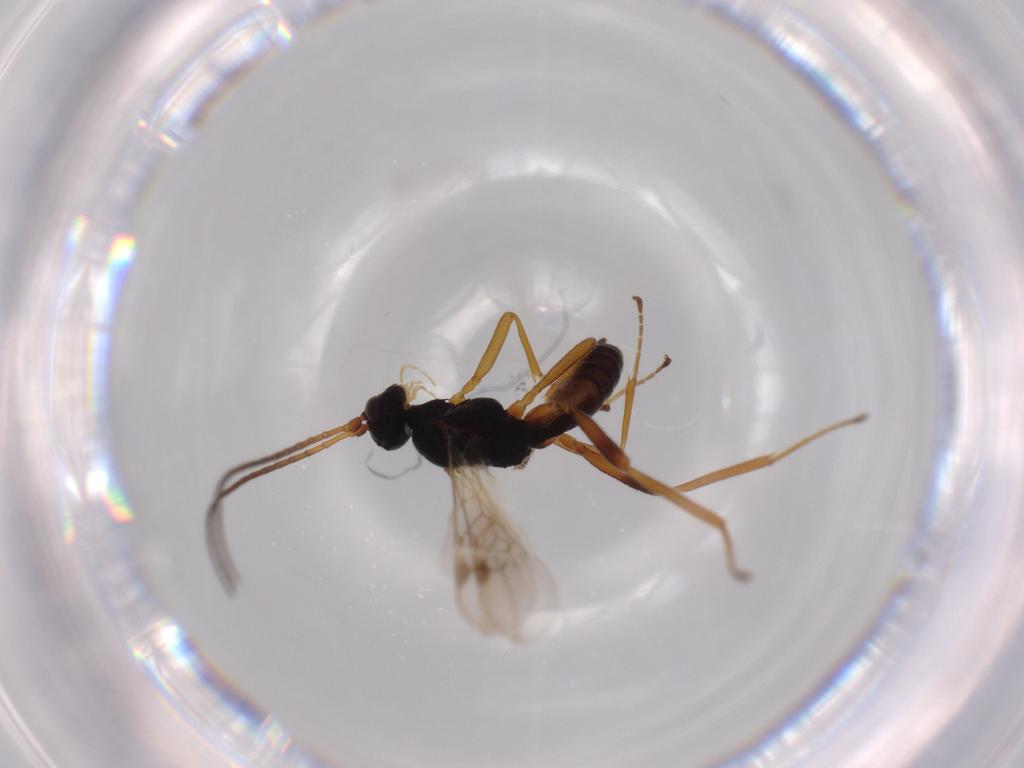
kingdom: Animalia
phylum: Arthropoda
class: Insecta
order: Hymenoptera
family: Braconidae
